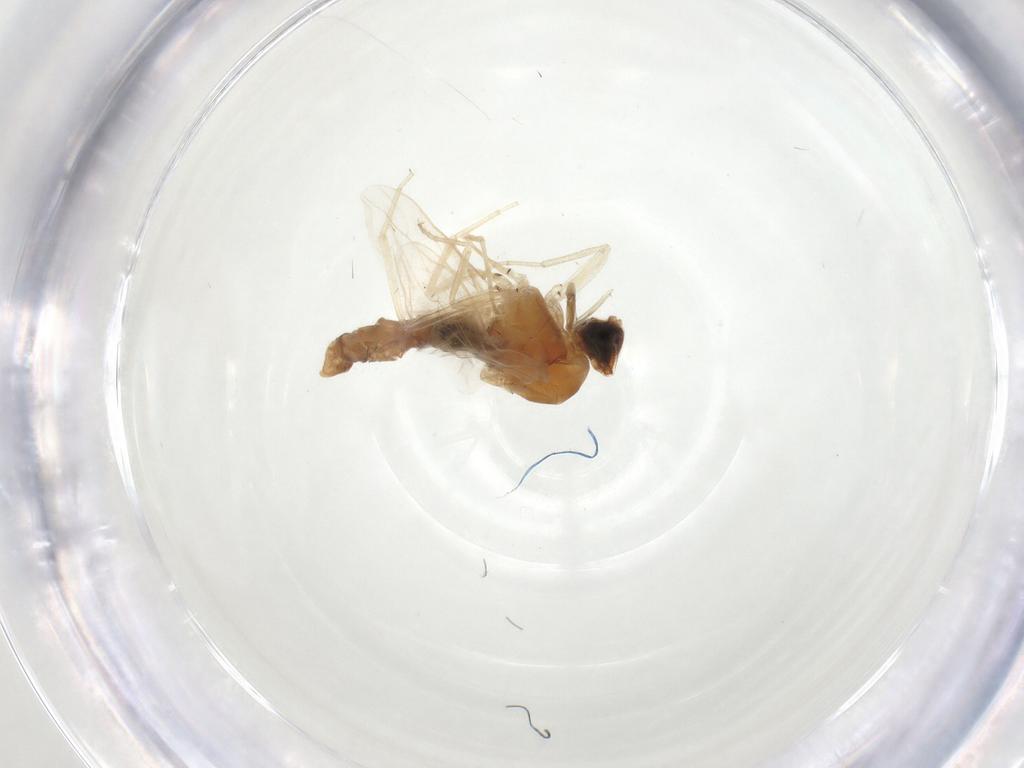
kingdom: Animalia
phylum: Arthropoda
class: Insecta
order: Diptera
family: Scenopinidae
